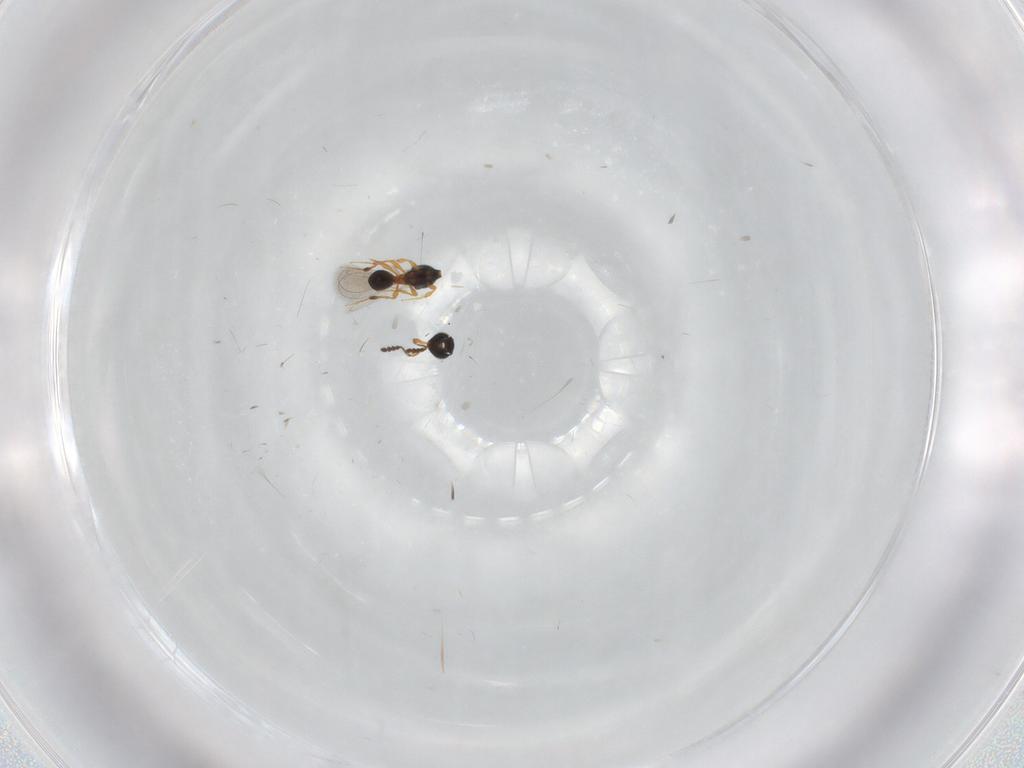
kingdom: Animalia
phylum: Arthropoda
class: Insecta
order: Hymenoptera
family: Platygastridae
